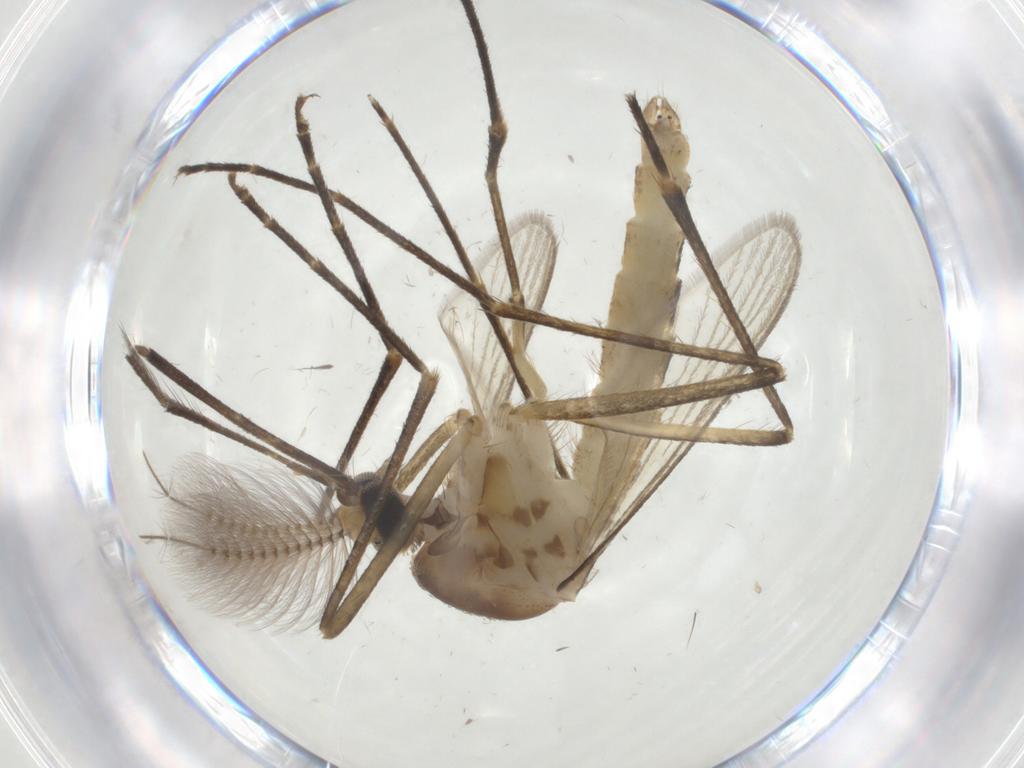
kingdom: Animalia
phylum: Arthropoda
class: Insecta
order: Diptera
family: Culicidae
